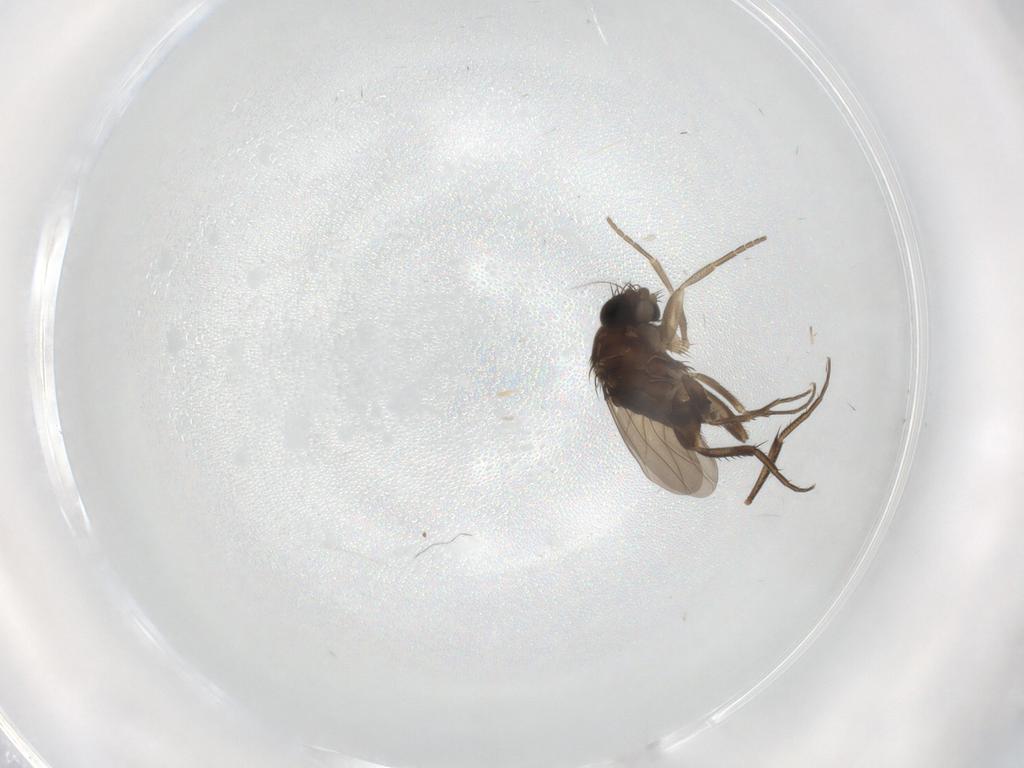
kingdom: Animalia
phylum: Arthropoda
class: Insecta
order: Diptera
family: Phoridae
